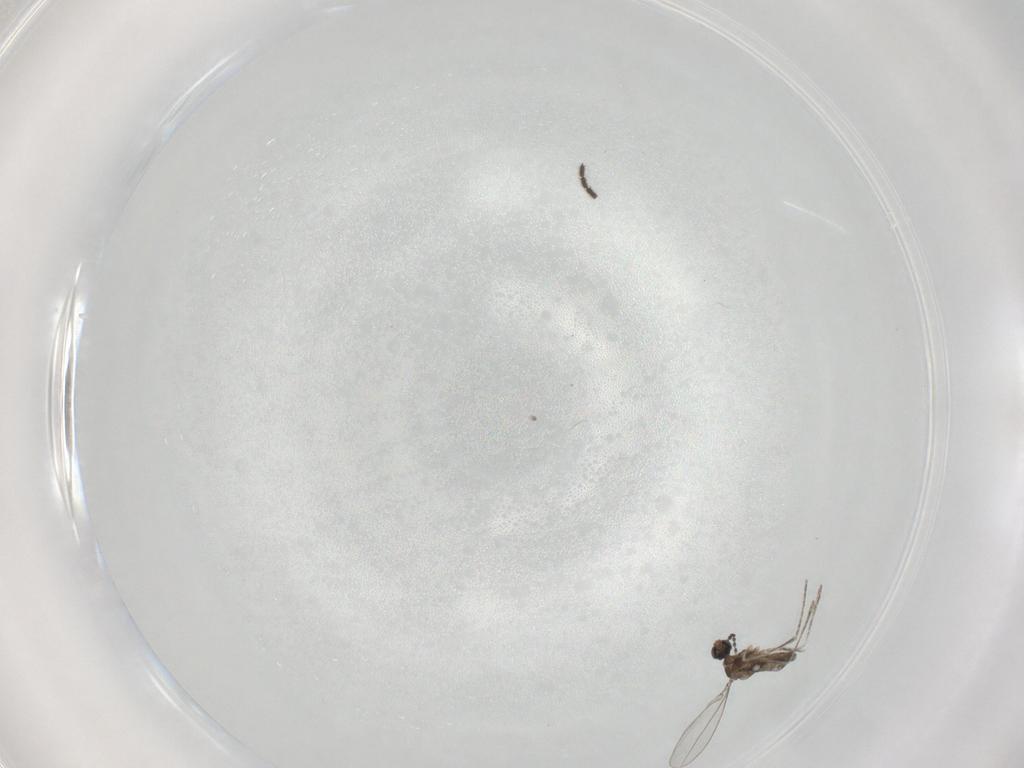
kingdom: Animalia
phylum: Arthropoda
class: Insecta
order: Diptera
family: Cecidomyiidae
